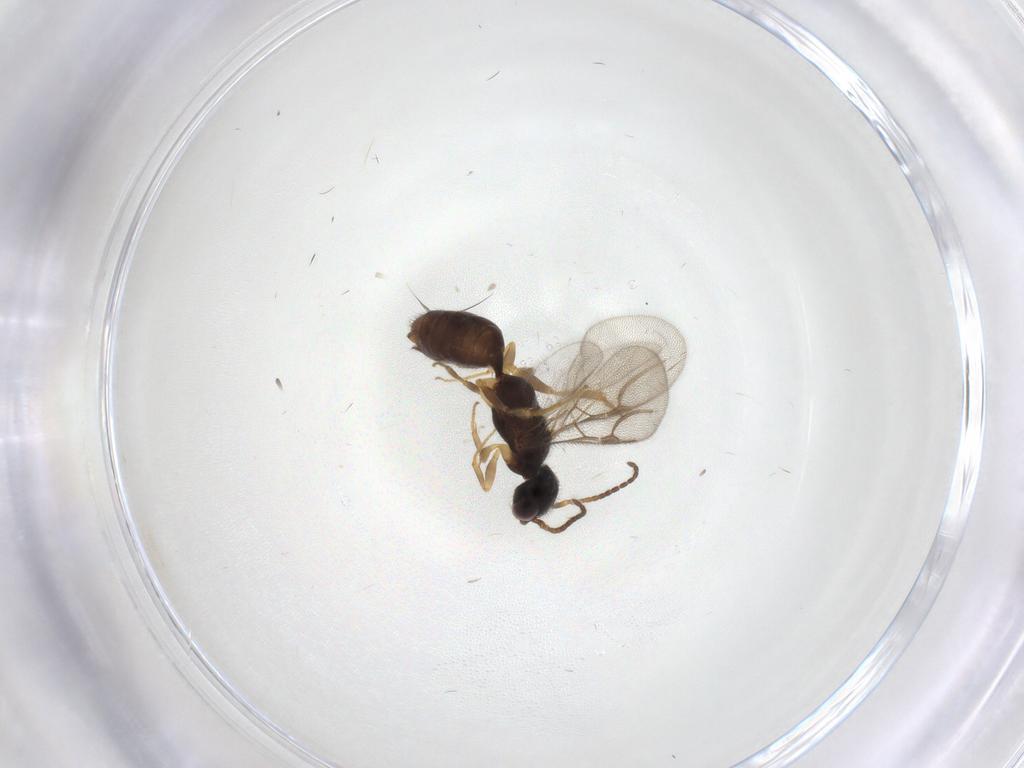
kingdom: Animalia
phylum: Arthropoda
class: Insecta
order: Hymenoptera
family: Bethylidae
